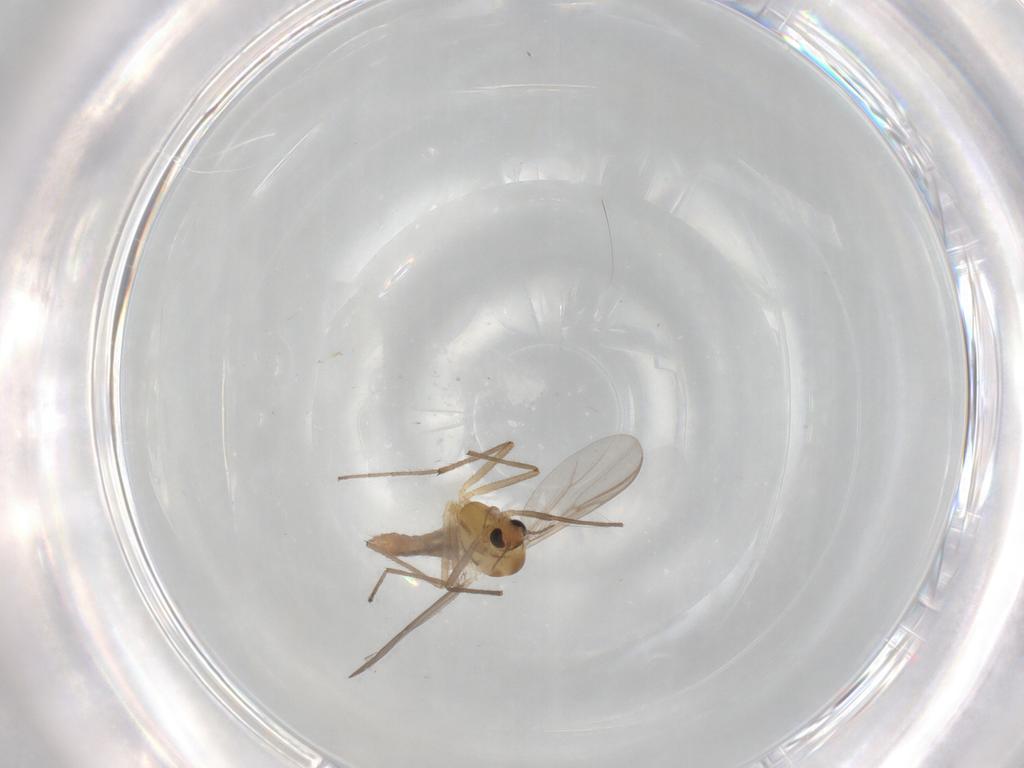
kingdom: Animalia
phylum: Arthropoda
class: Insecta
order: Diptera
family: Chironomidae
